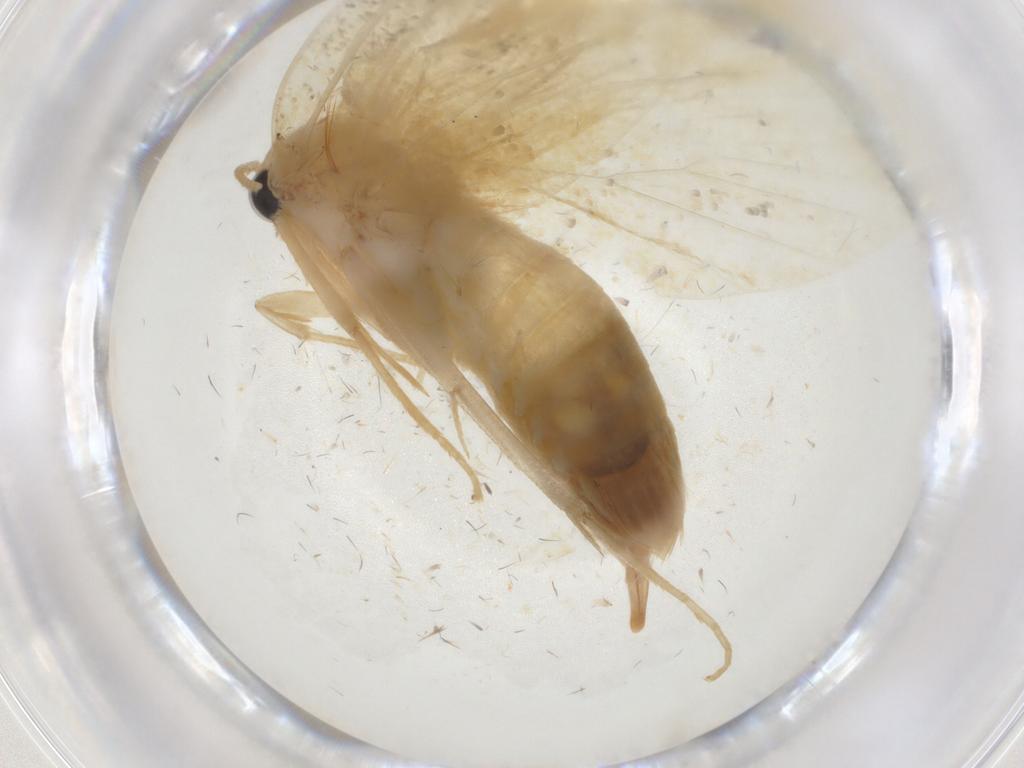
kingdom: Animalia
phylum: Arthropoda
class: Insecta
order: Lepidoptera
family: Psychidae
